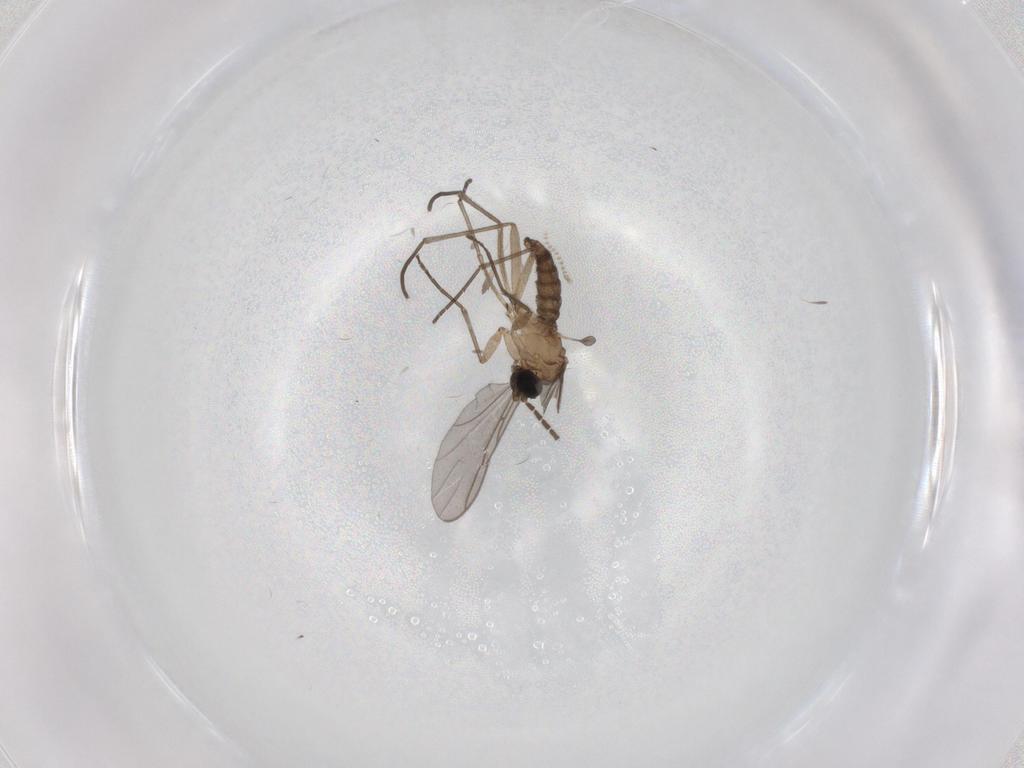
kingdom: Animalia
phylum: Arthropoda
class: Insecta
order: Diptera
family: Sciaridae
